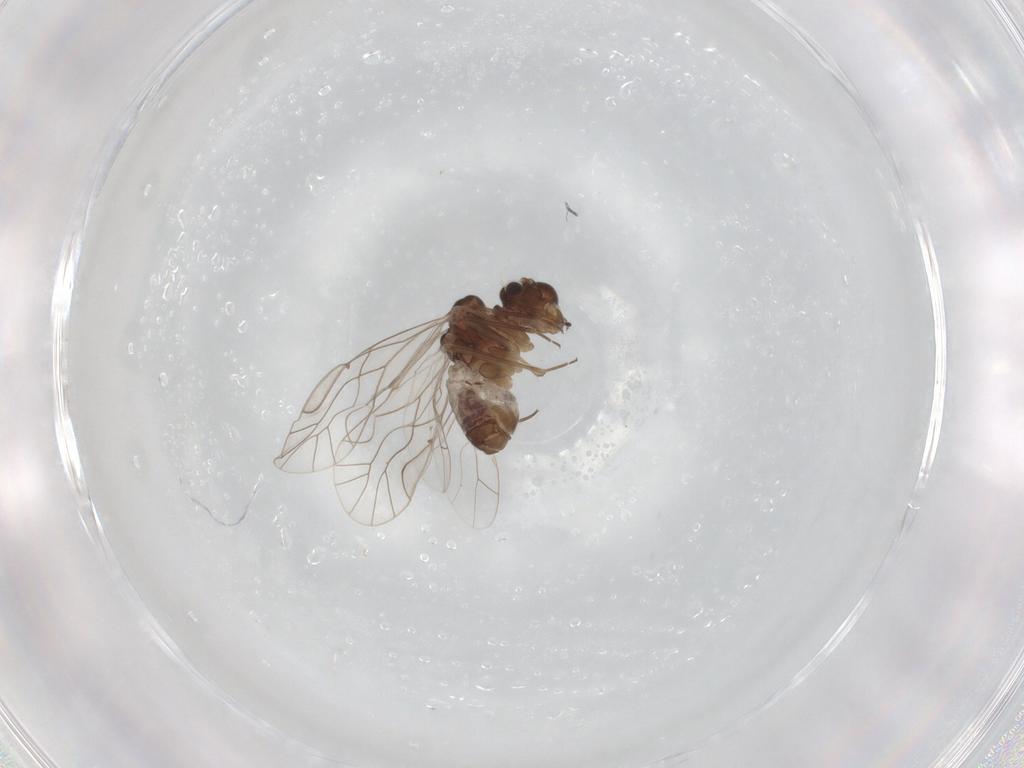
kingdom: Animalia
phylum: Arthropoda
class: Insecta
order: Psocodea
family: Lachesillidae
